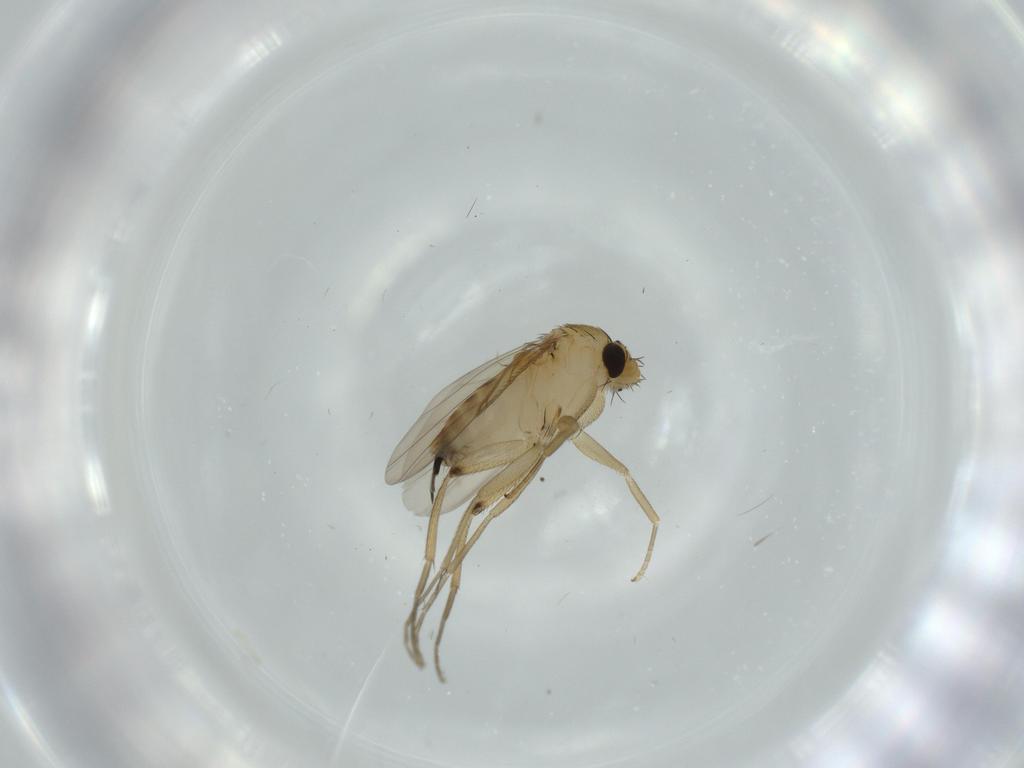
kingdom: Animalia
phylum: Arthropoda
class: Insecta
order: Diptera
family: Phoridae
